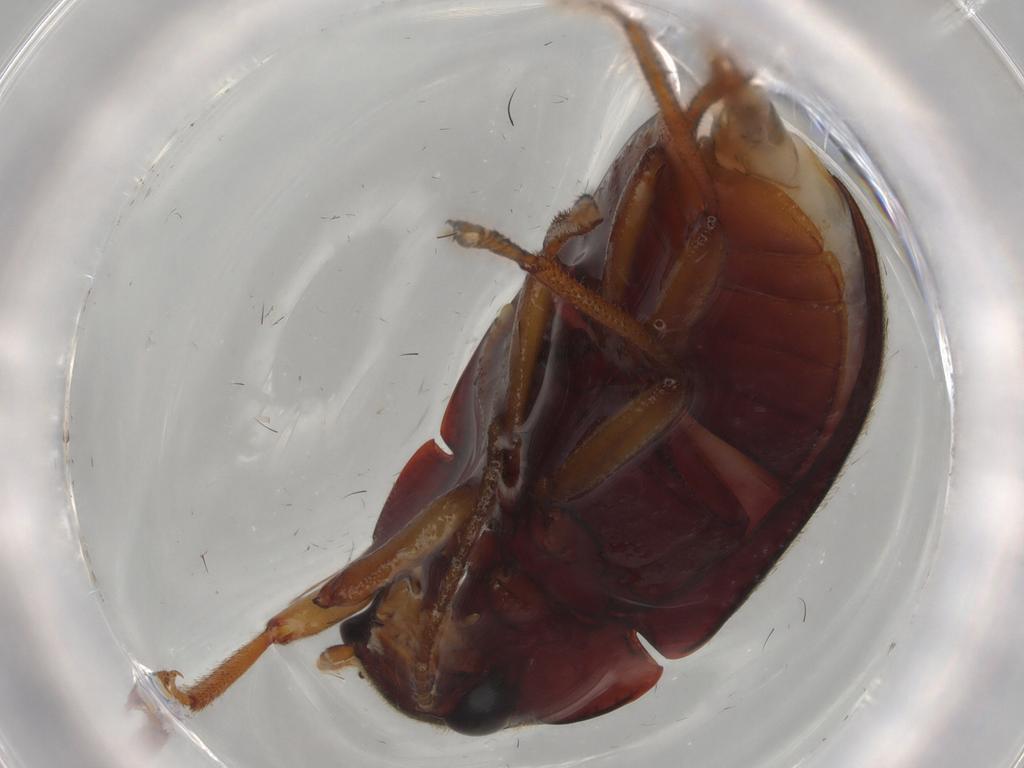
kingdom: Animalia
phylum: Arthropoda
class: Insecta
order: Coleoptera
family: Ptilodactylidae
